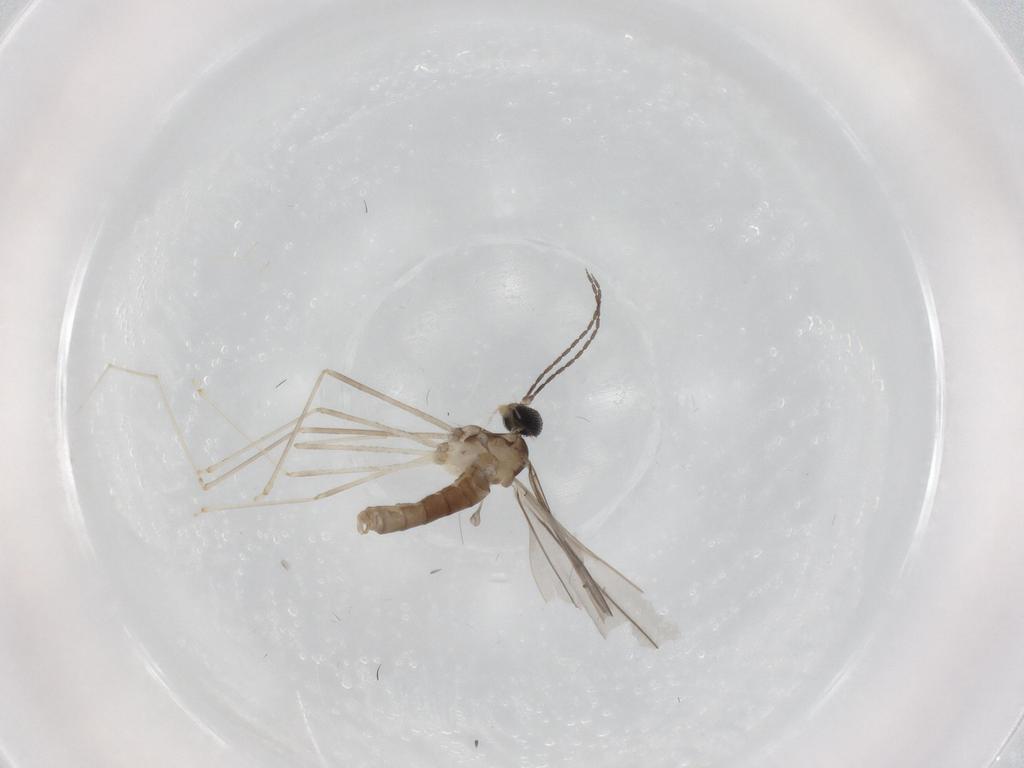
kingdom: Animalia
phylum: Arthropoda
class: Insecta
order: Diptera
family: Cecidomyiidae
